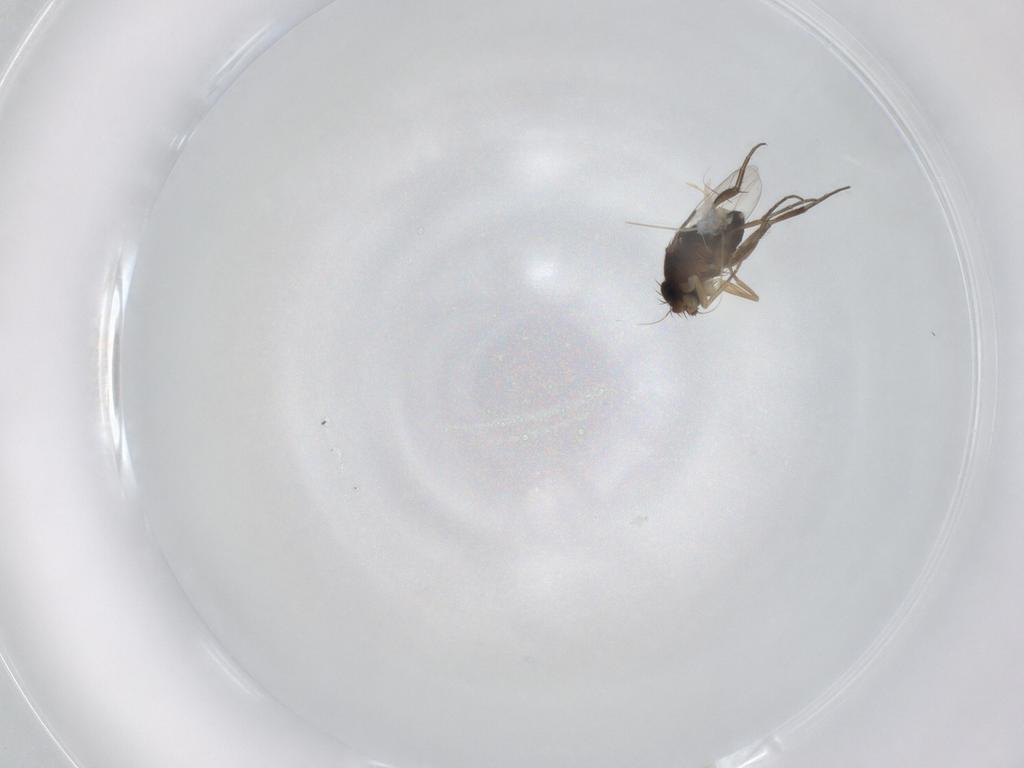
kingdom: Animalia
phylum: Arthropoda
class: Insecta
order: Diptera
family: Phoridae
